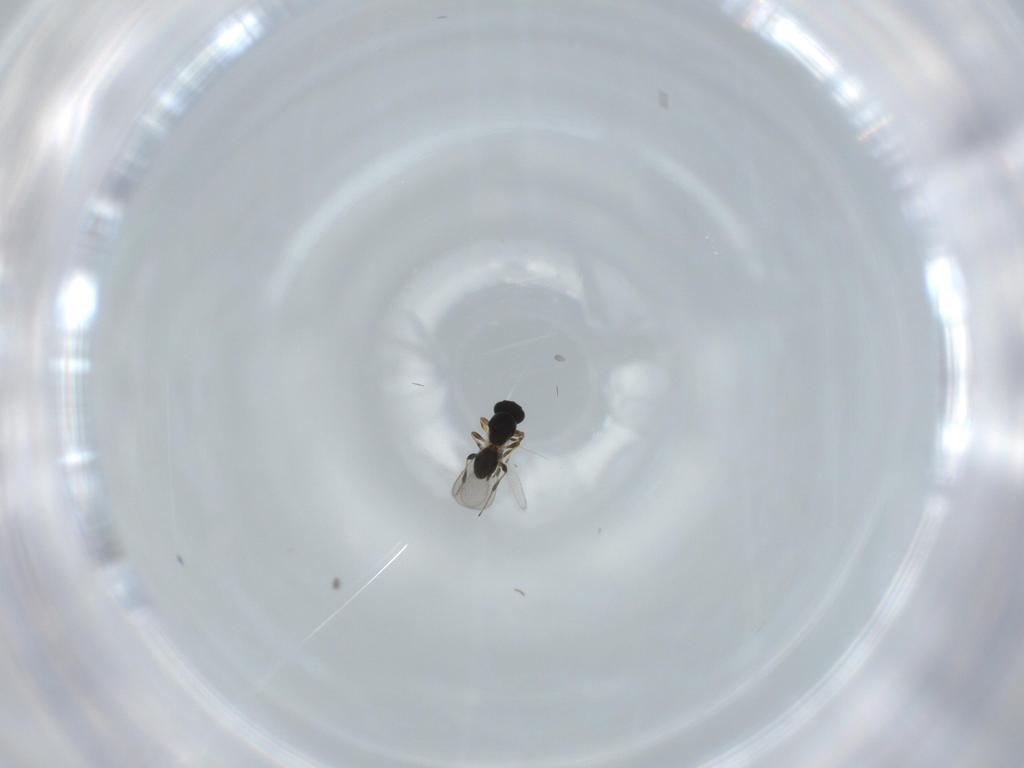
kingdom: Animalia
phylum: Arthropoda
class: Insecta
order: Hymenoptera
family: Platygastridae
